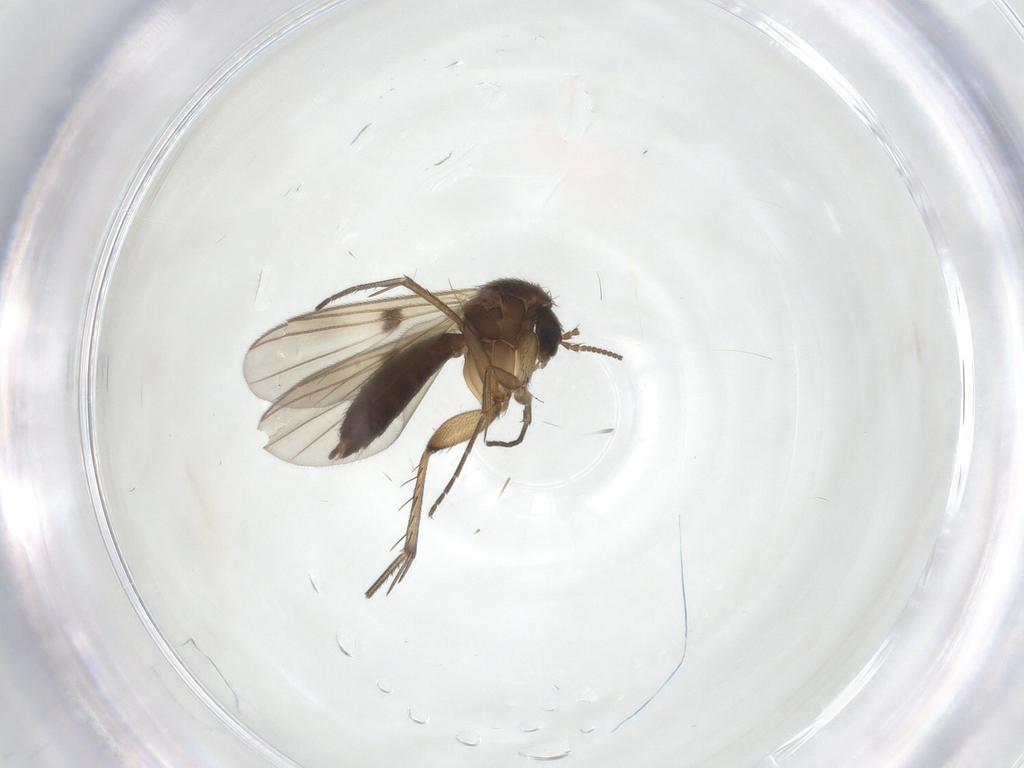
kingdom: Animalia
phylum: Arthropoda
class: Insecta
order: Diptera
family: Mycetophilidae
